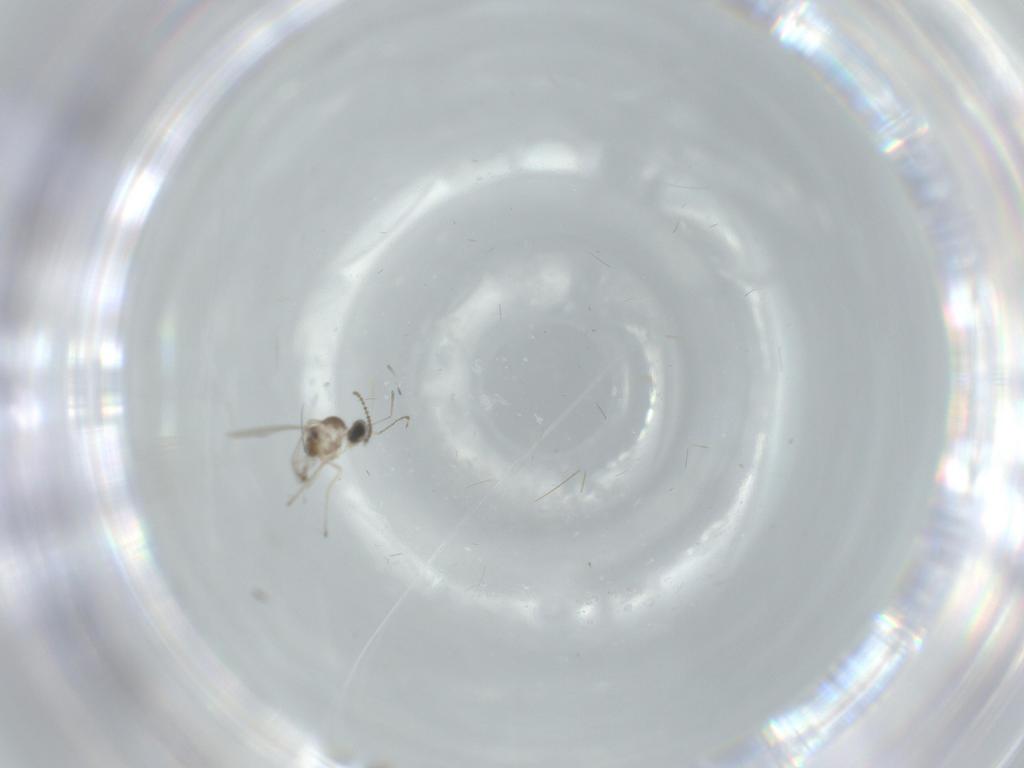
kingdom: Animalia
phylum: Arthropoda
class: Insecta
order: Diptera
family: Cecidomyiidae
